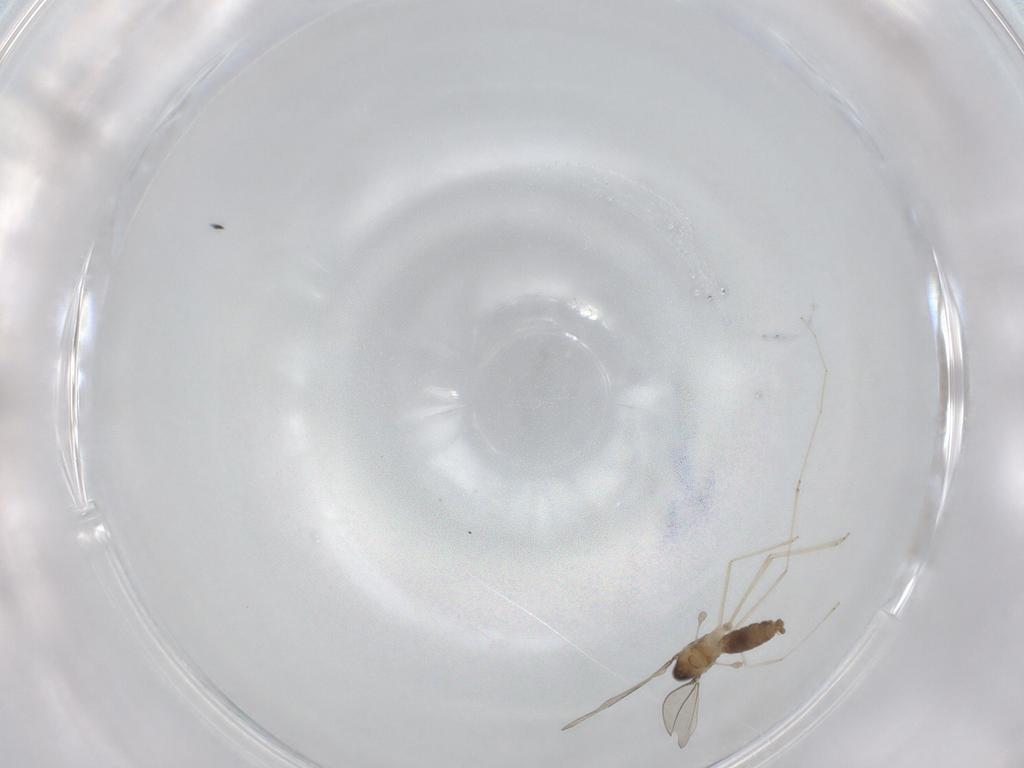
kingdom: Animalia
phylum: Arthropoda
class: Insecta
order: Diptera
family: Cecidomyiidae
